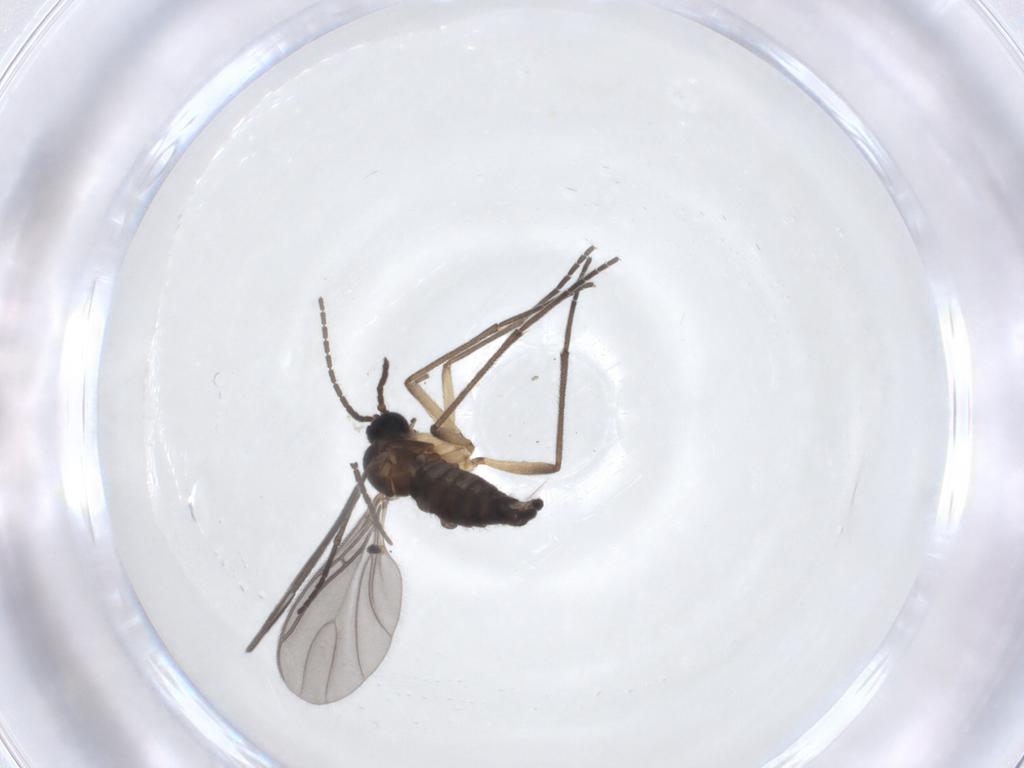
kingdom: Animalia
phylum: Arthropoda
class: Insecta
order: Diptera
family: Sciaridae
